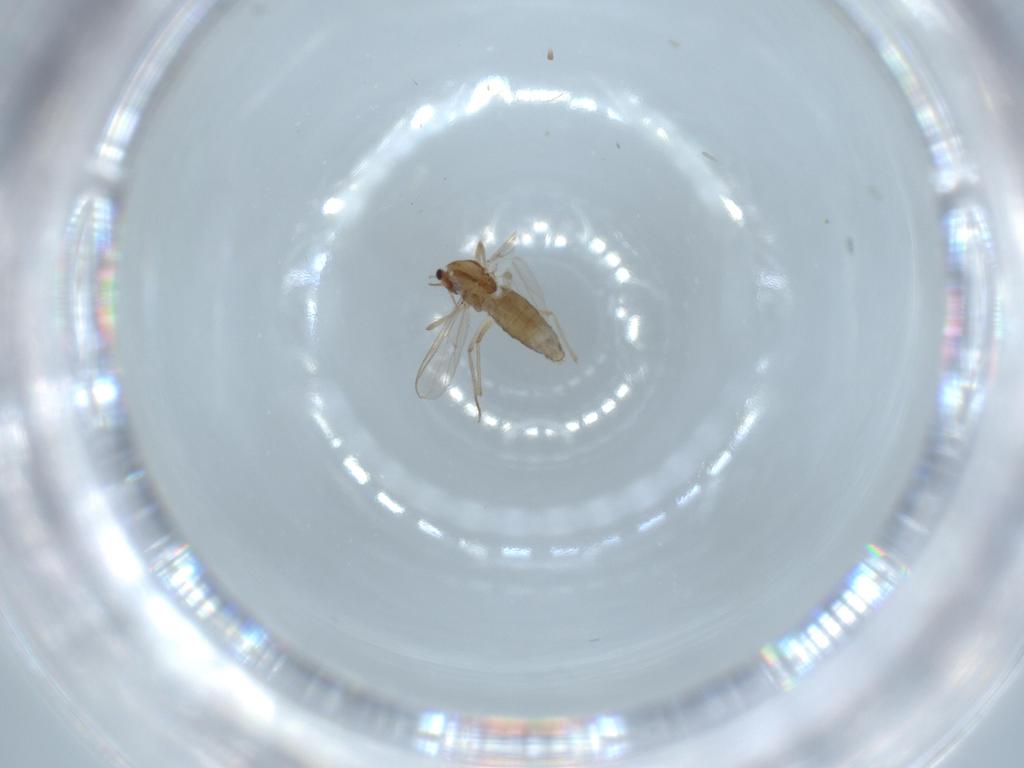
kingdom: Animalia
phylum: Arthropoda
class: Insecta
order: Diptera
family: Chironomidae
